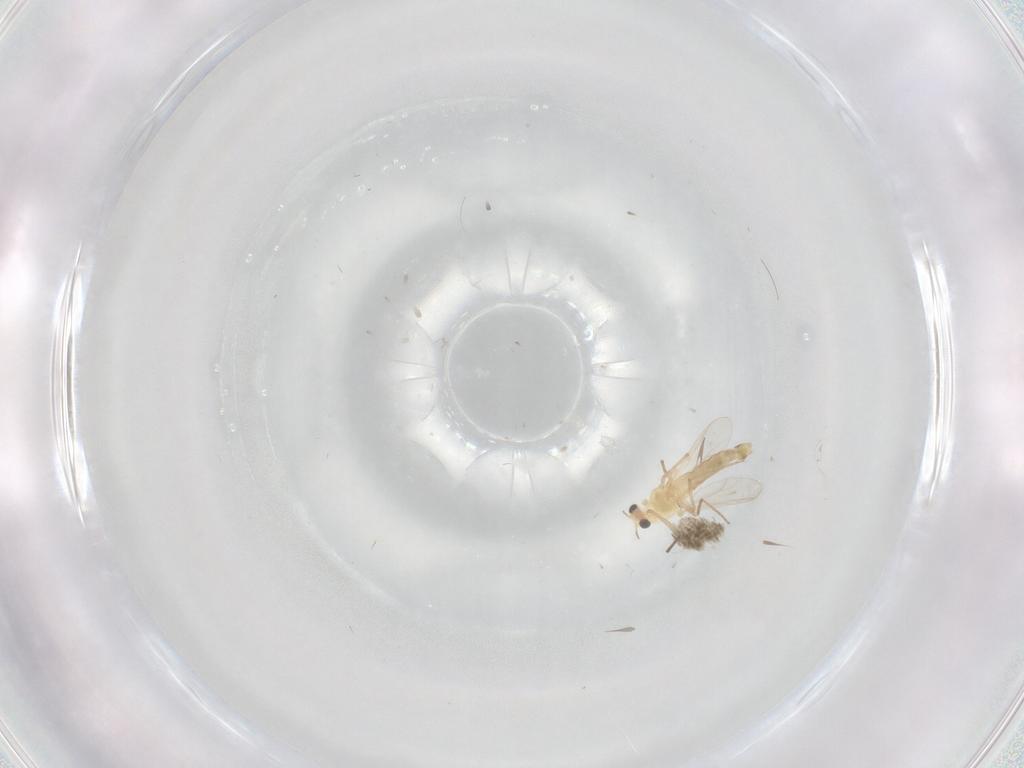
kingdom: Animalia
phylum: Arthropoda
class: Insecta
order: Diptera
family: Chironomidae
